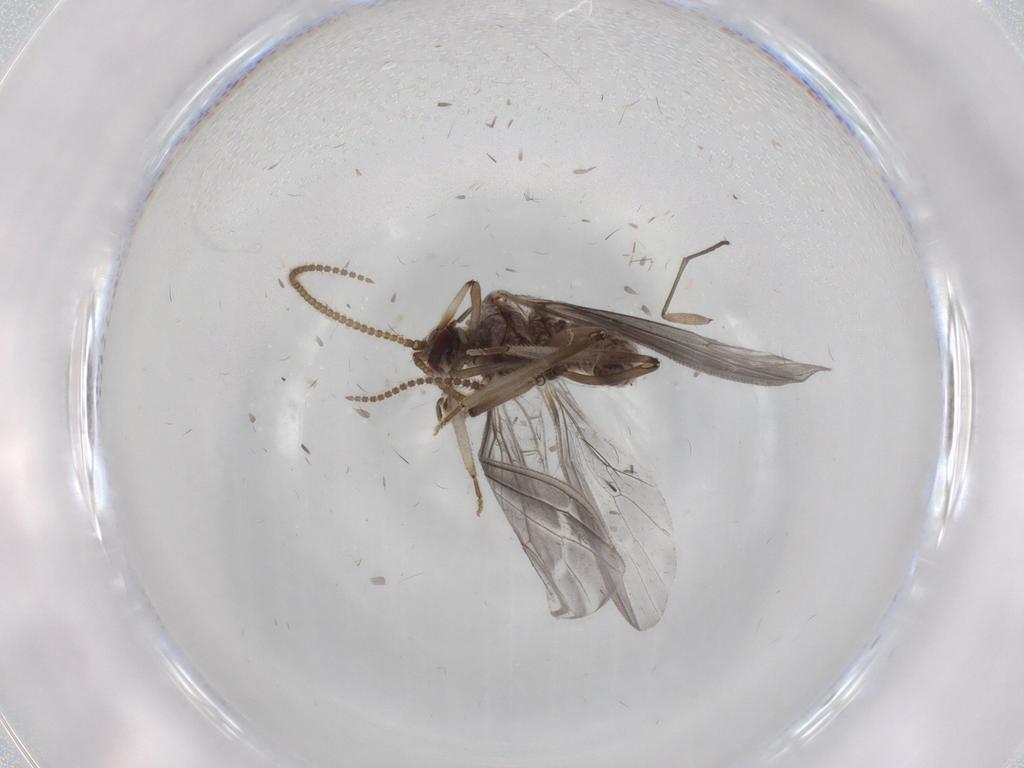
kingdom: Animalia
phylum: Arthropoda
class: Insecta
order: Neuroptera
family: Coniopterygidae
